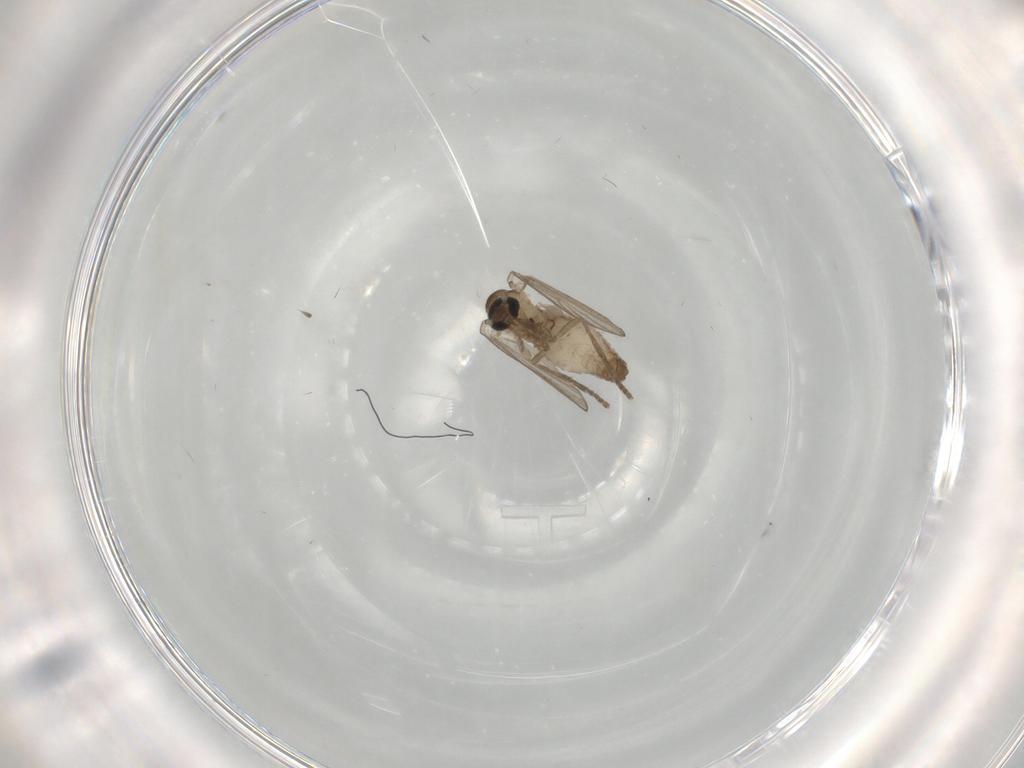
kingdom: Animalia
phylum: Arthropoda
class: Insecta
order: Diptera
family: Psychodidae
